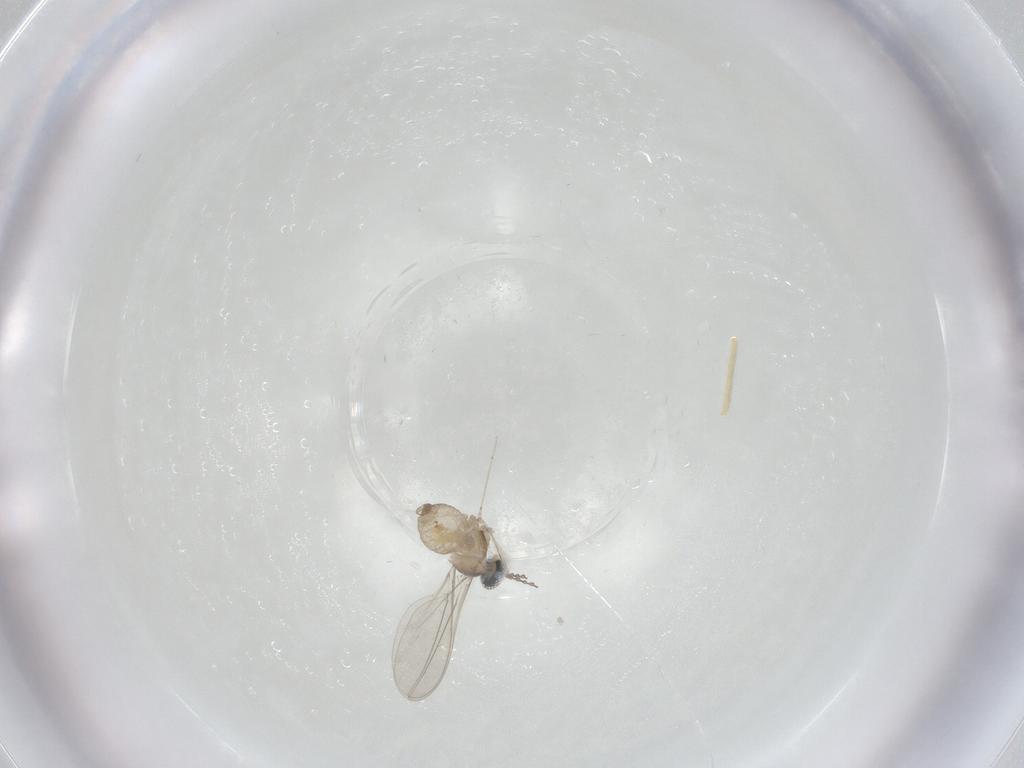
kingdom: Animalia
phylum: Arthropoda
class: Insecta
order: Diptera
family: Cecidomyiidae
